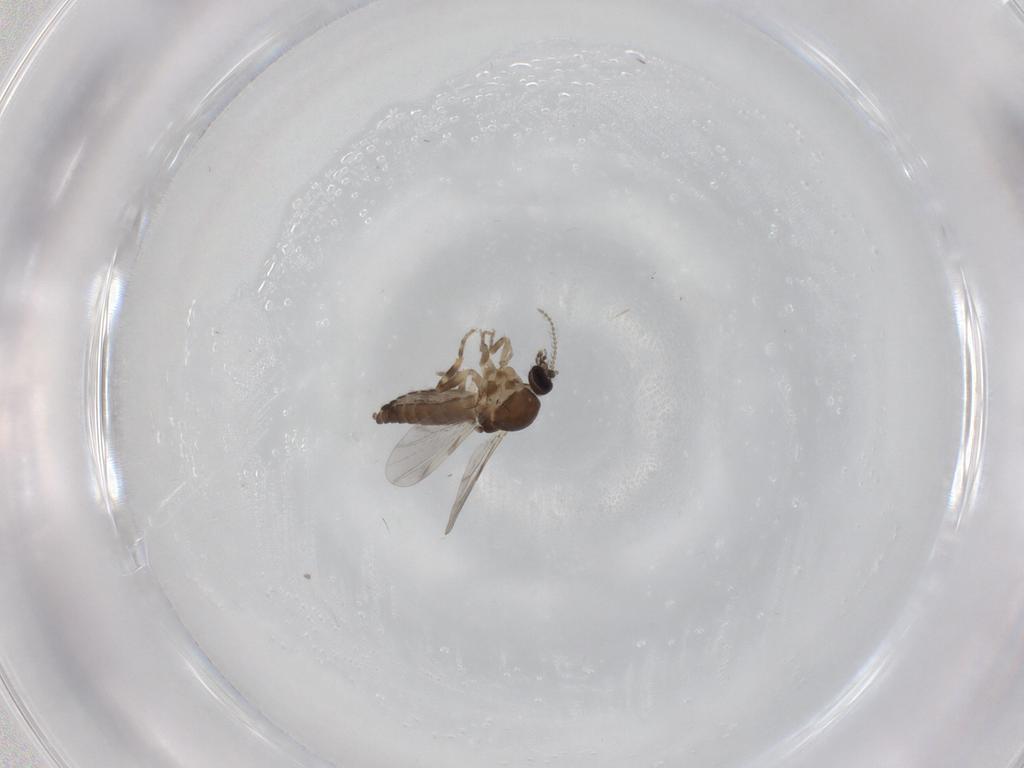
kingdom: Animalia
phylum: Arthropoda
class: Insecta
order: Diptera
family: Ceratopogonidae
